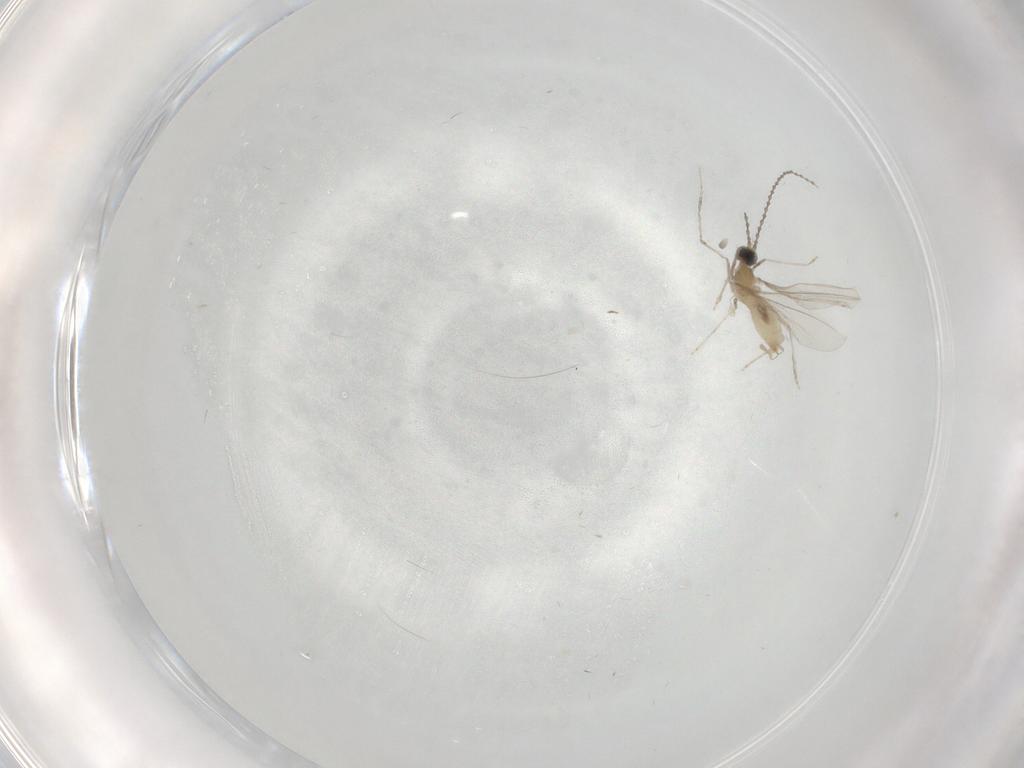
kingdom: Animalia
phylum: Arthropoda
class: Insecta
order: Diptera
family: Cecidomyiidae
